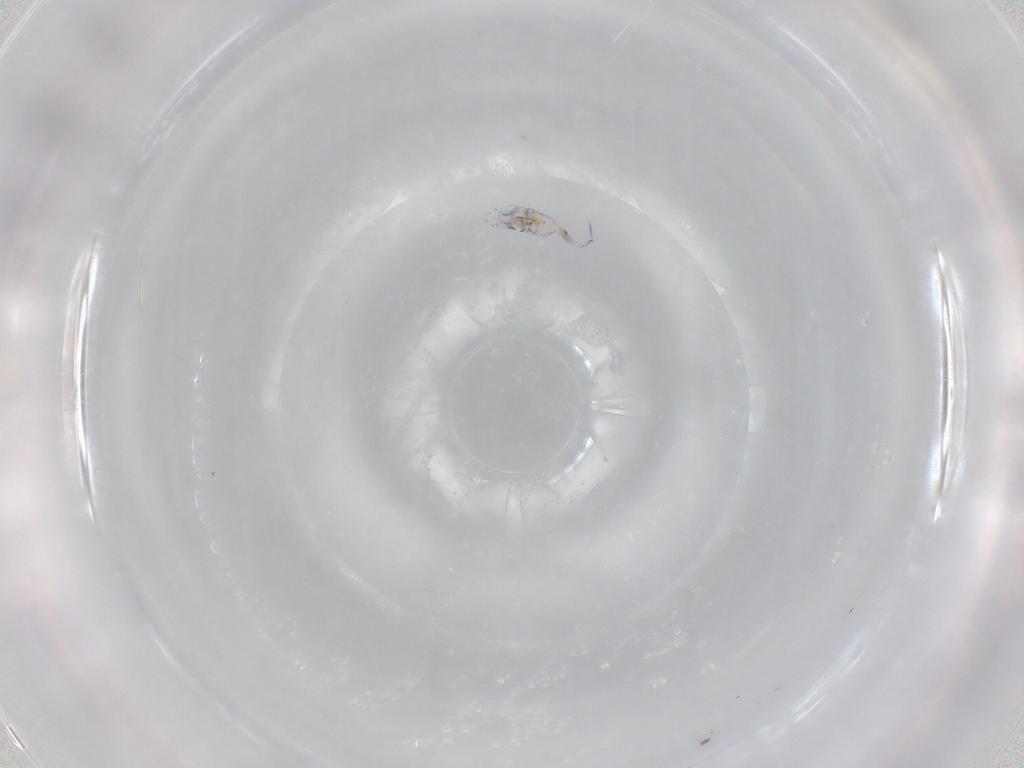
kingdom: Animalia
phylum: Arthropoda
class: Collembola
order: Entomobryomorpha
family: Entomobryidae
